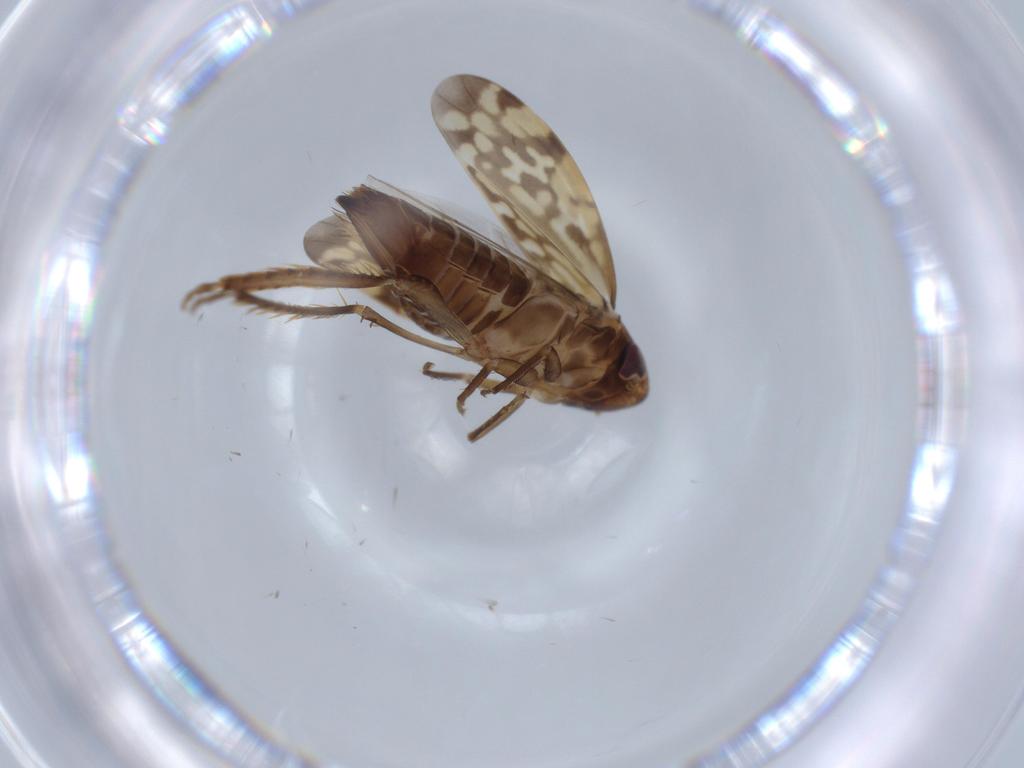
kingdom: Animalia
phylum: Arthropoda
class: Insecta
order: Hemiptera
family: Cicadellidae
